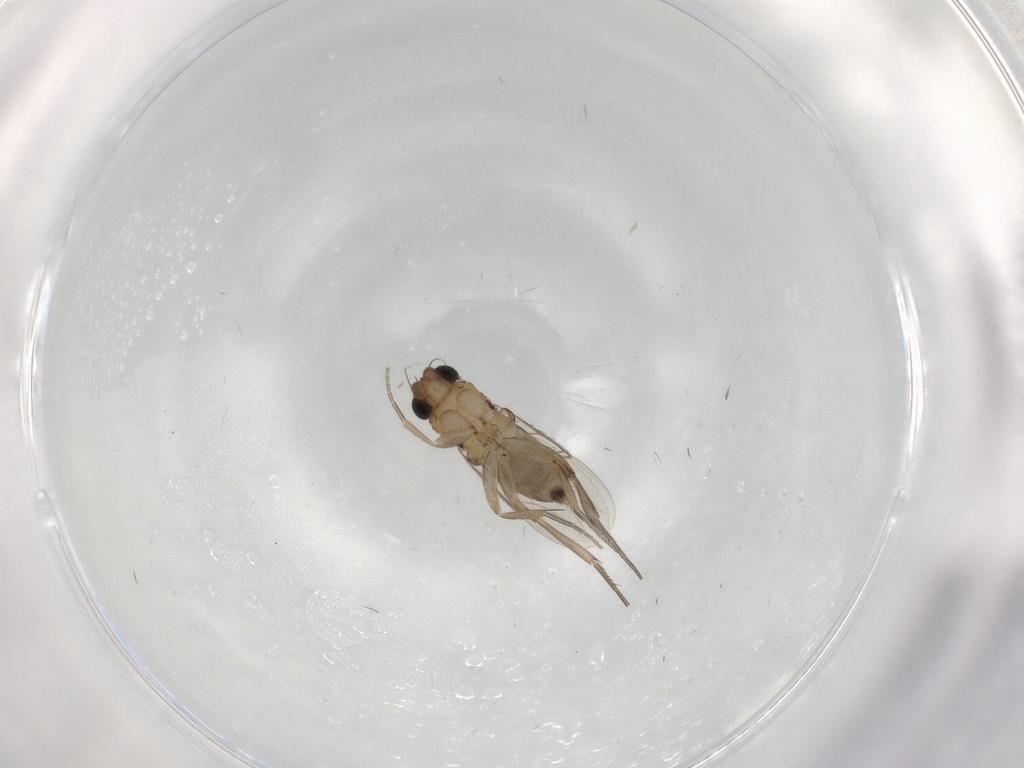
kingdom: Animalia
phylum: Arthropoda
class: Insecta
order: Diptera
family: Phoridae
